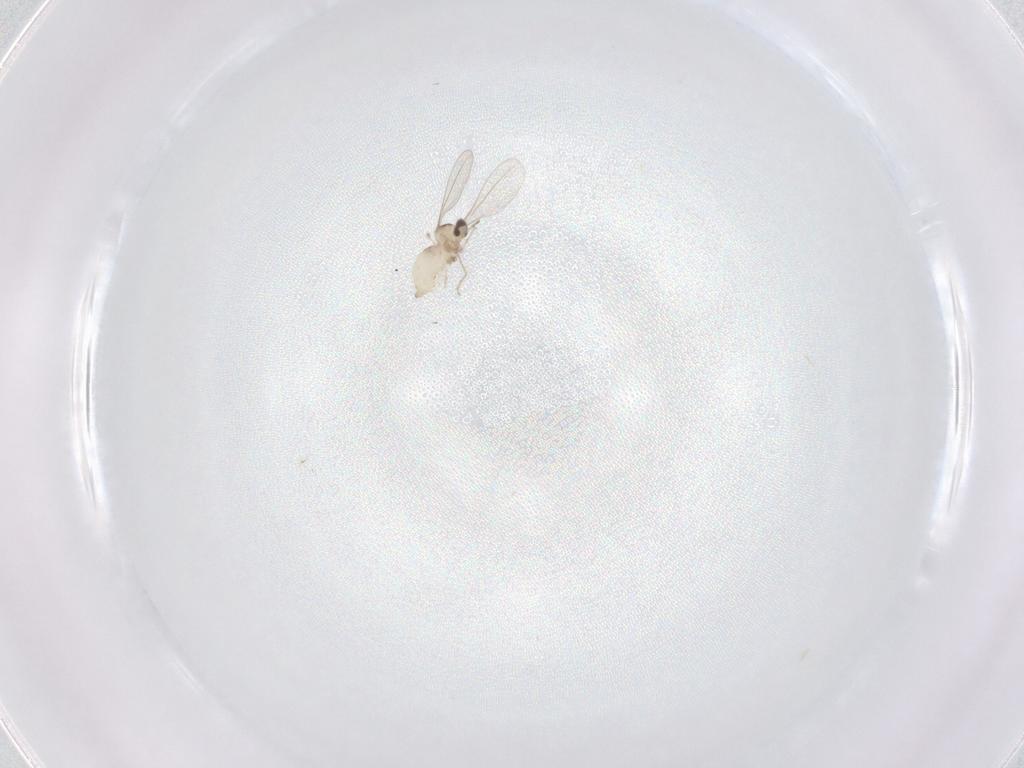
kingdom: Animalia
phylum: Arthropoda
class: Insecta
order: Diptera
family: Cecidomyiidae
